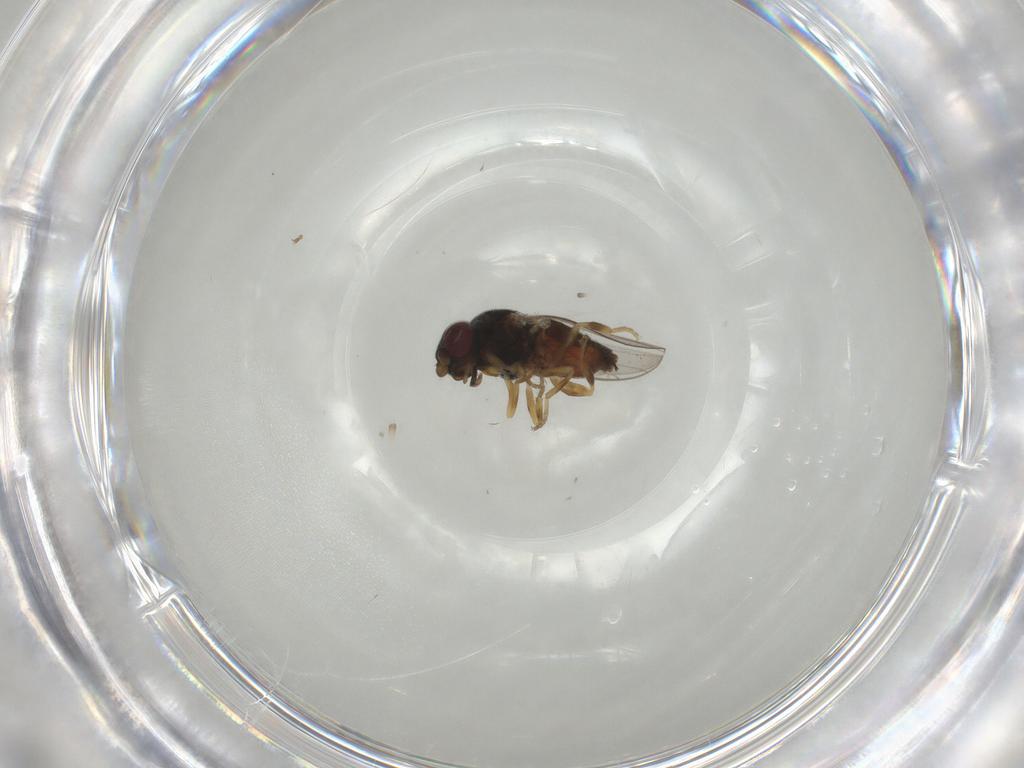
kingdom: Animalia
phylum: Arthropoda
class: Insecta
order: Diptera
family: Chloropidae
